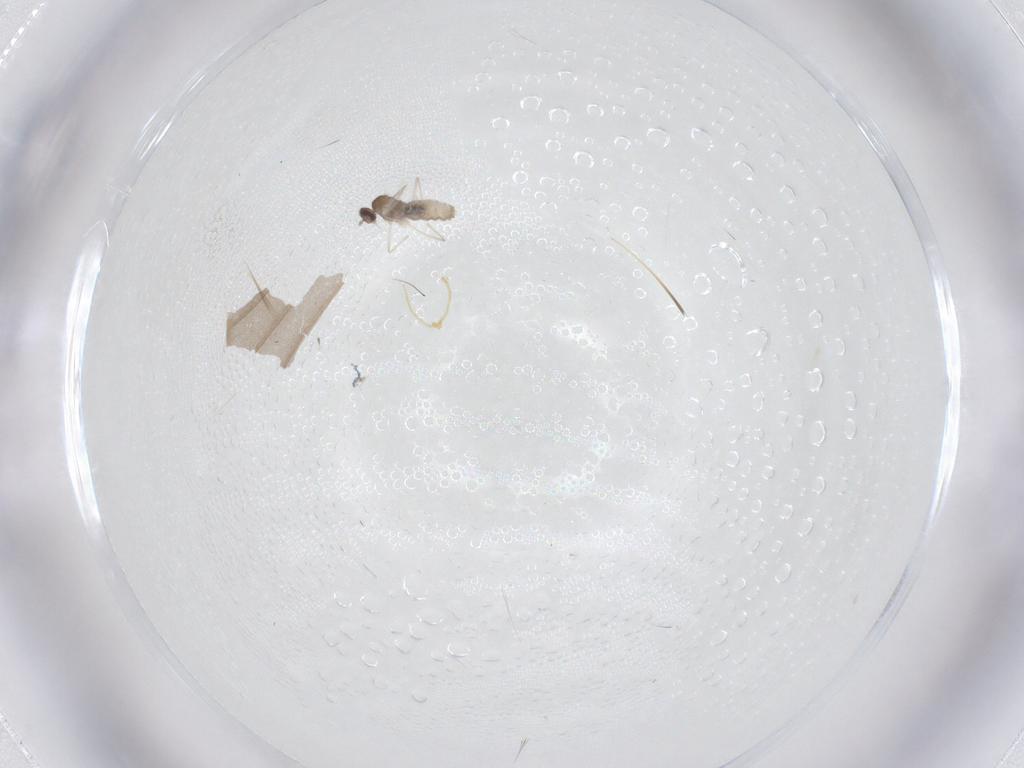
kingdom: Animalia
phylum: Arthropoda
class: Insecta
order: Diptera
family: Cecidomyiidae
